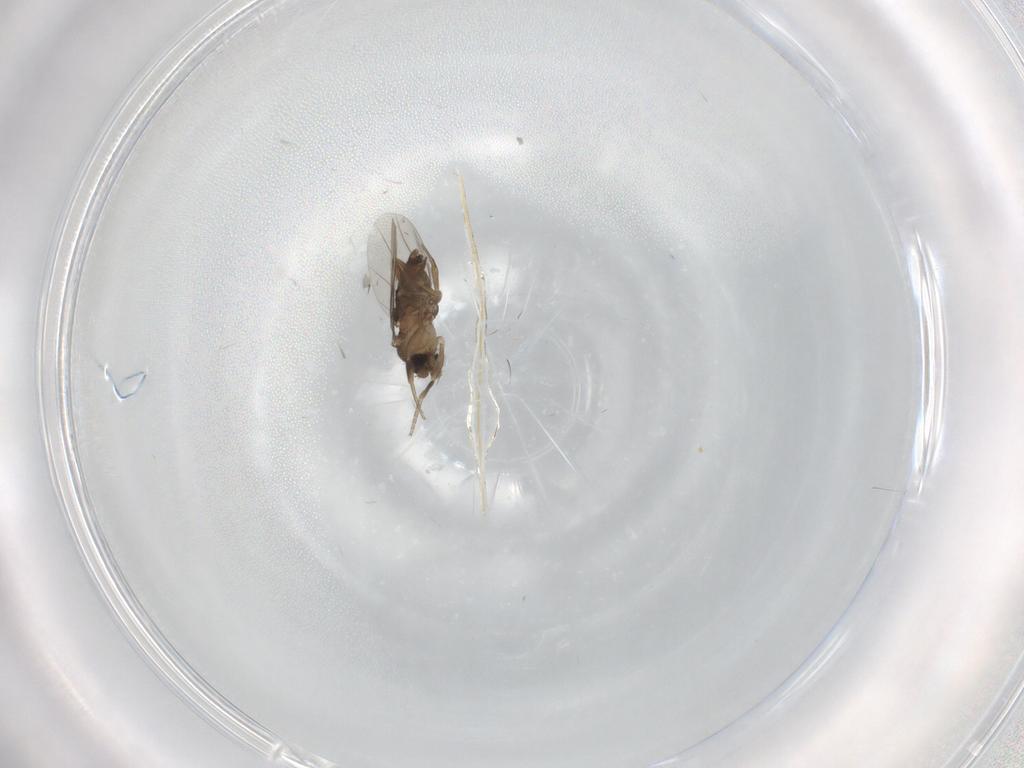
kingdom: Animalia
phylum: Arthropoda
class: Insecta
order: Diptera
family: Phoridae
